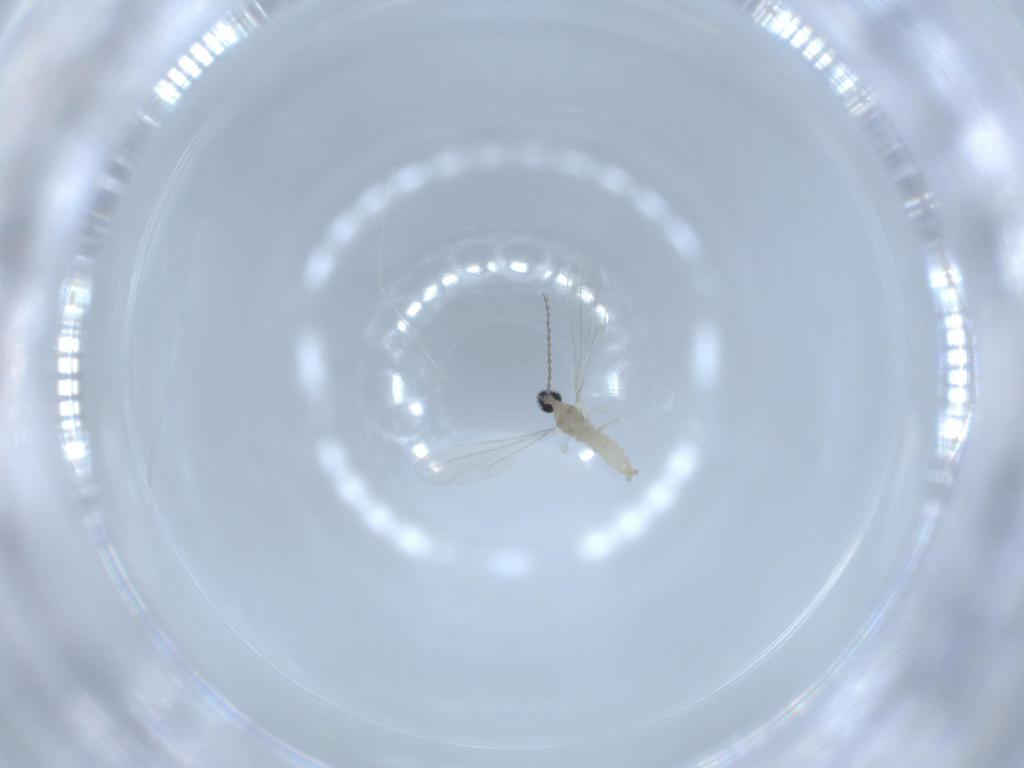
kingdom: Animalia
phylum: Arthropoda
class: Insecta
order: Diptera
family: Cecidomyiidae
